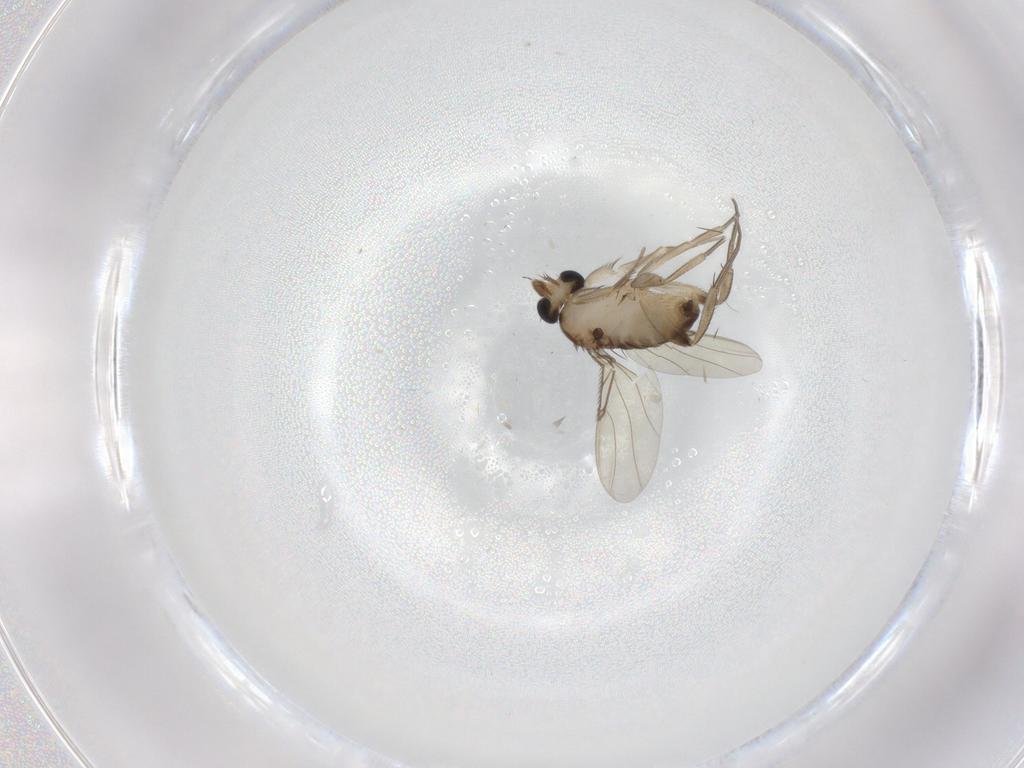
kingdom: Animalia
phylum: Arthropoda
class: Insecta
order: Diptera
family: Phoridae
